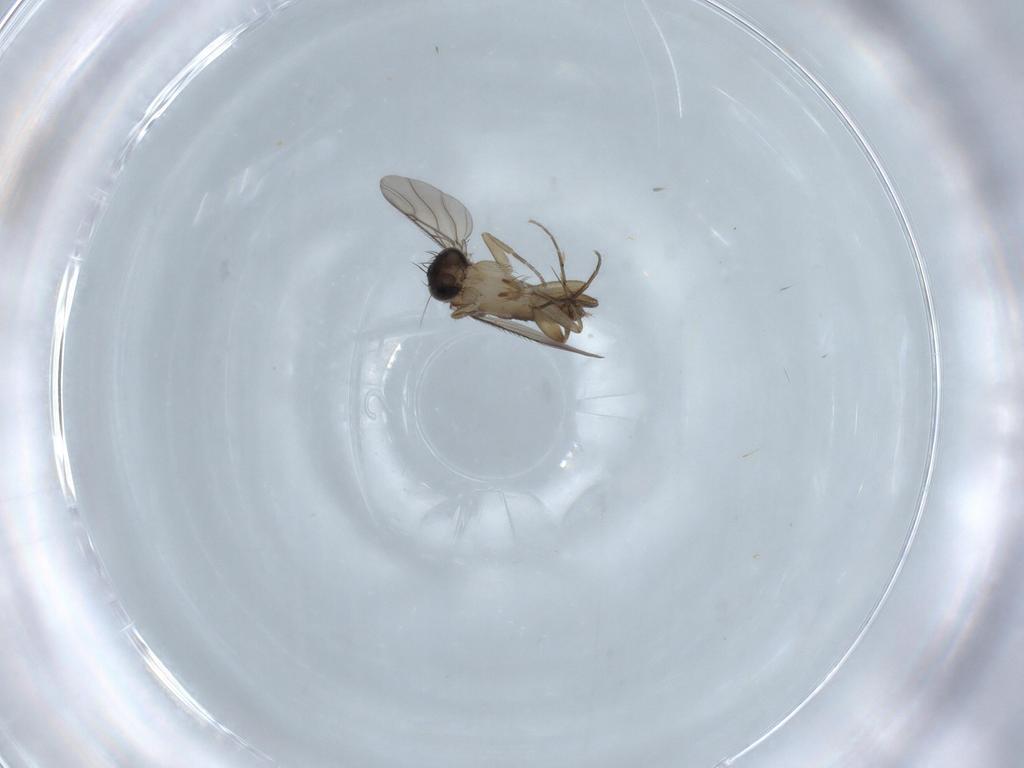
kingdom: Animalia
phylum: Arthropoda
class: Insecta
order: Diptera
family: Phoridae
